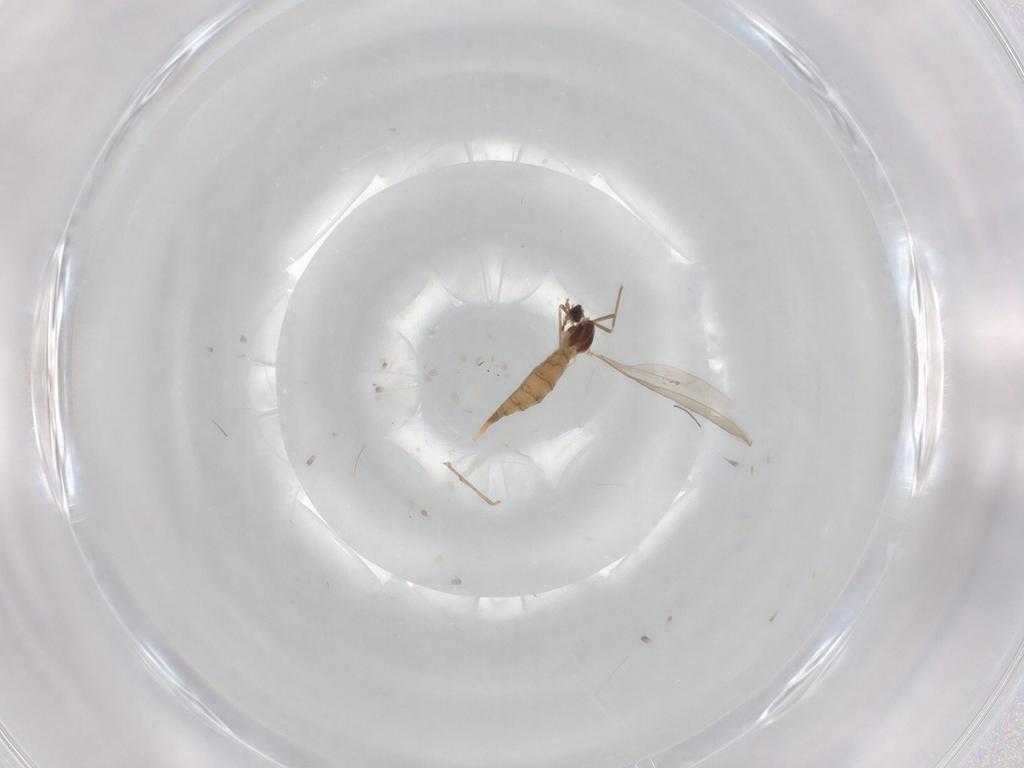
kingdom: Animalia
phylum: Arthropoda
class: Insecta
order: Diptera
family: Cecidomyiidae
